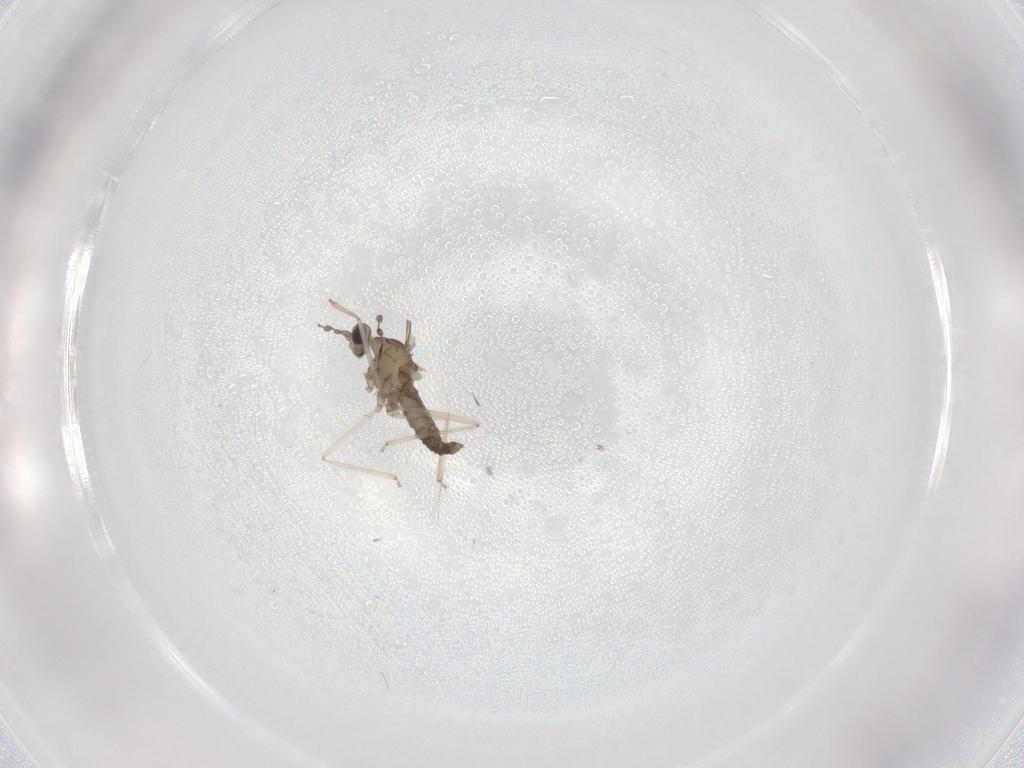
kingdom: Animalia
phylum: Arthropoda
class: Insecta
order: Diptera
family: Cecidomyiidae
